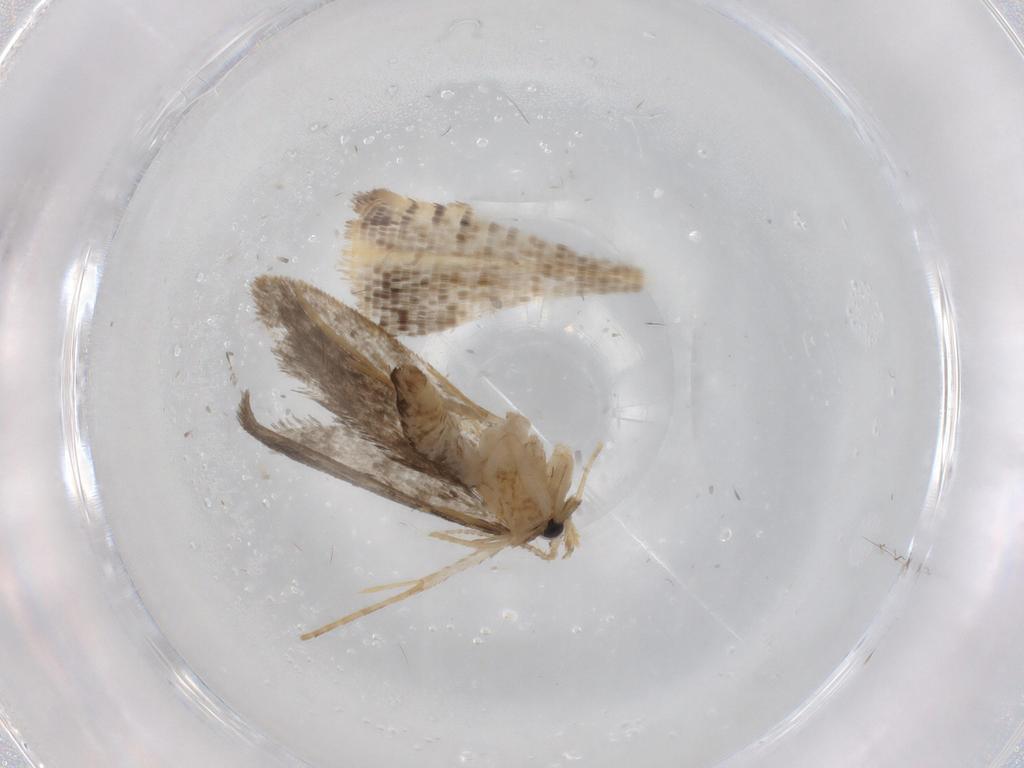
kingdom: Animalia
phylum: Arthropoda
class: Insecta
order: Lepidoptera
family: Psychidae
